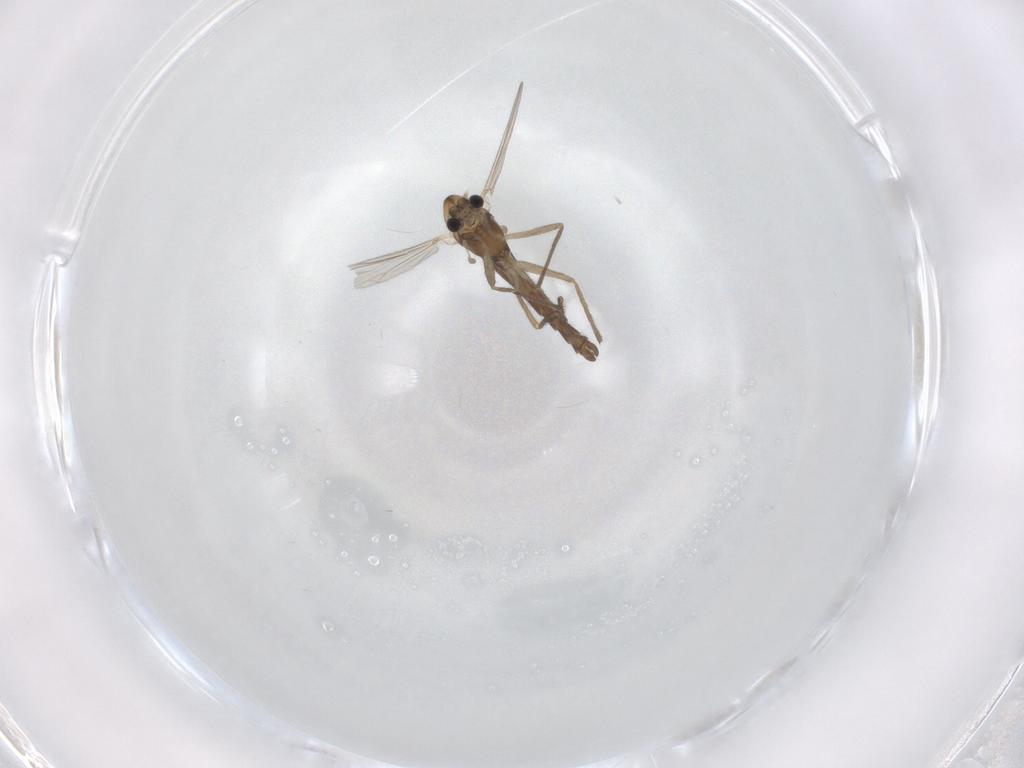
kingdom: Animalia
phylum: Arthropoda
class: Insecta
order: Diptera
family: Chironomidae
